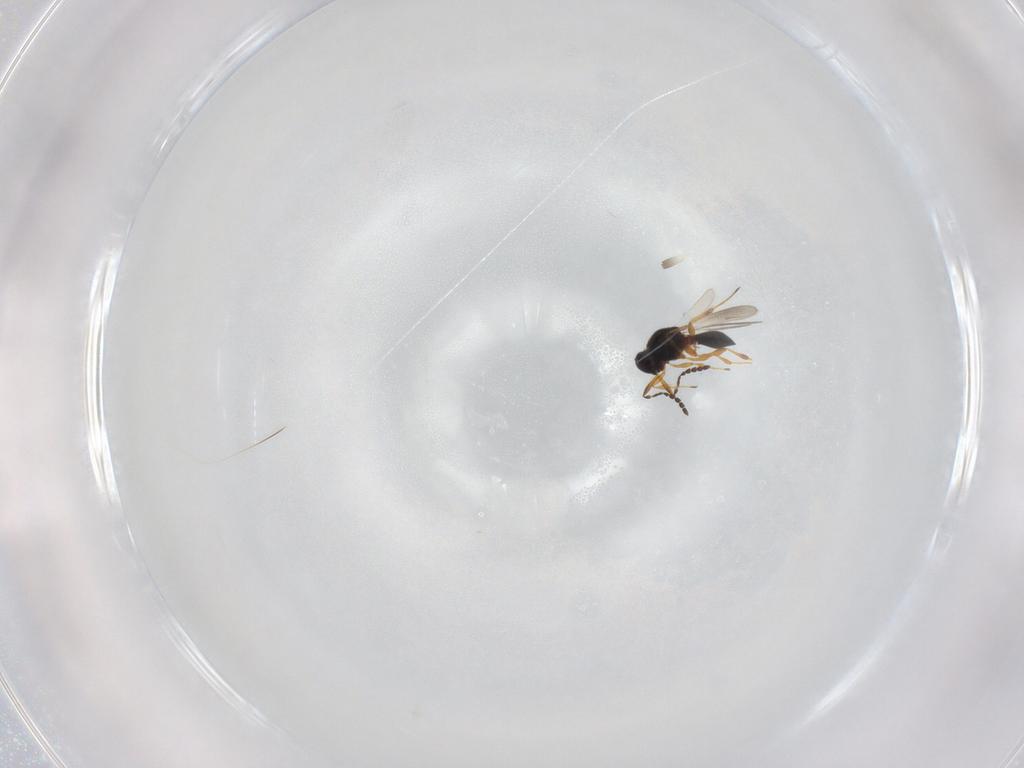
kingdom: Animalia
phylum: Arthropoda
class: Insecta
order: Hymenoptera
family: Platygastridae
